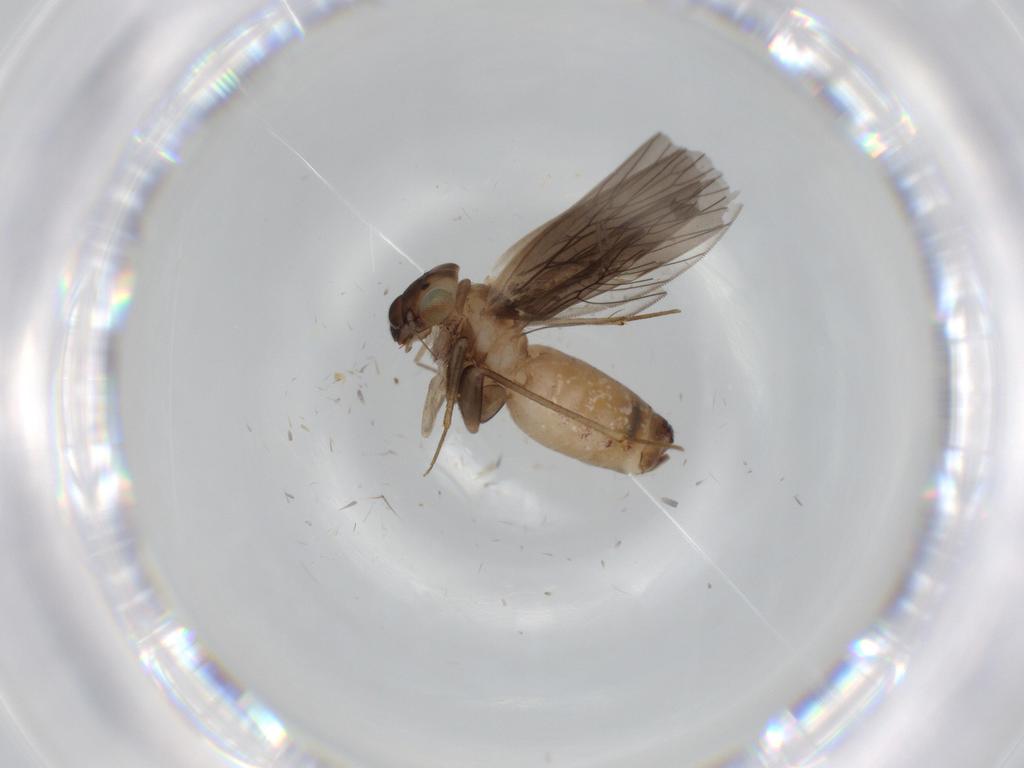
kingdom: Animalia
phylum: Arthropoda
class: Insecta
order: Psocodea
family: Lepidopsocidae
